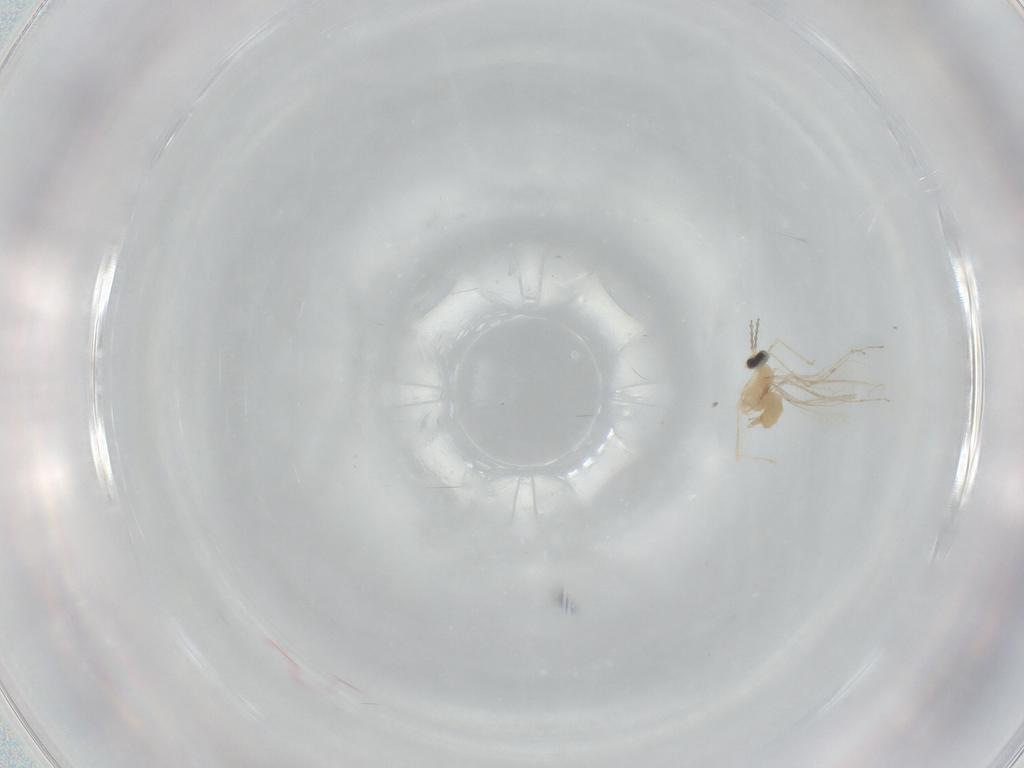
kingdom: Animalia
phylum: Arthropoda
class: Insecta
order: Diptera
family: Cecidomyiidae
